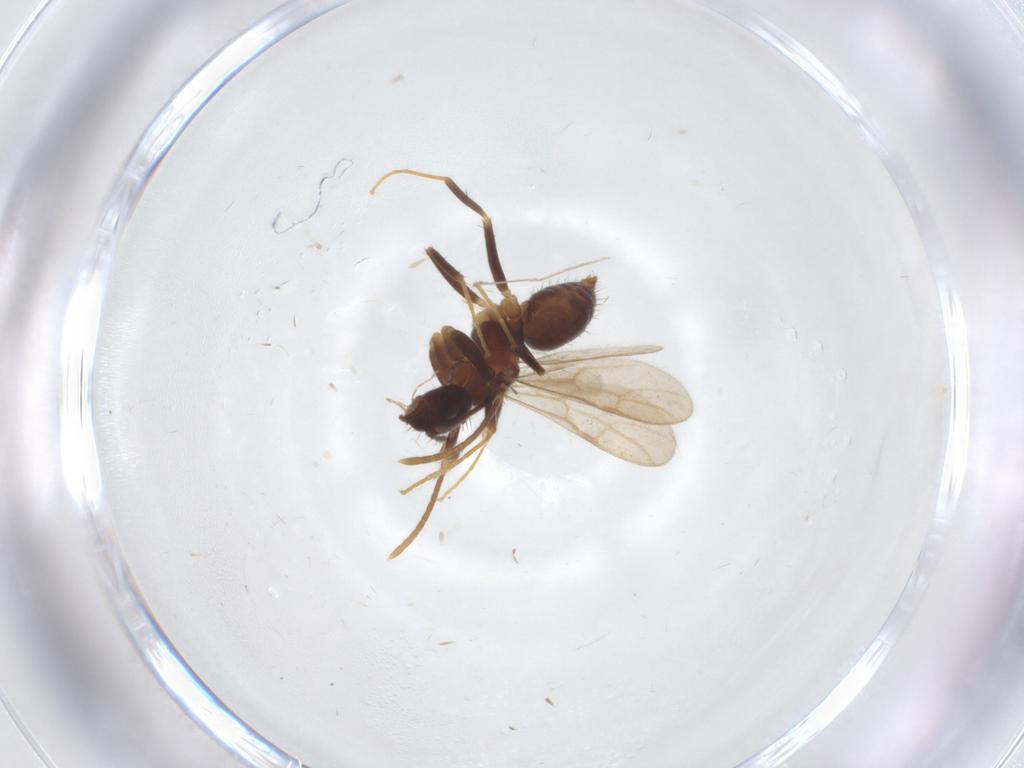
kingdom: Animalia
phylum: Arthropoda
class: Insecta
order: Hymenoptera
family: Formicidae
